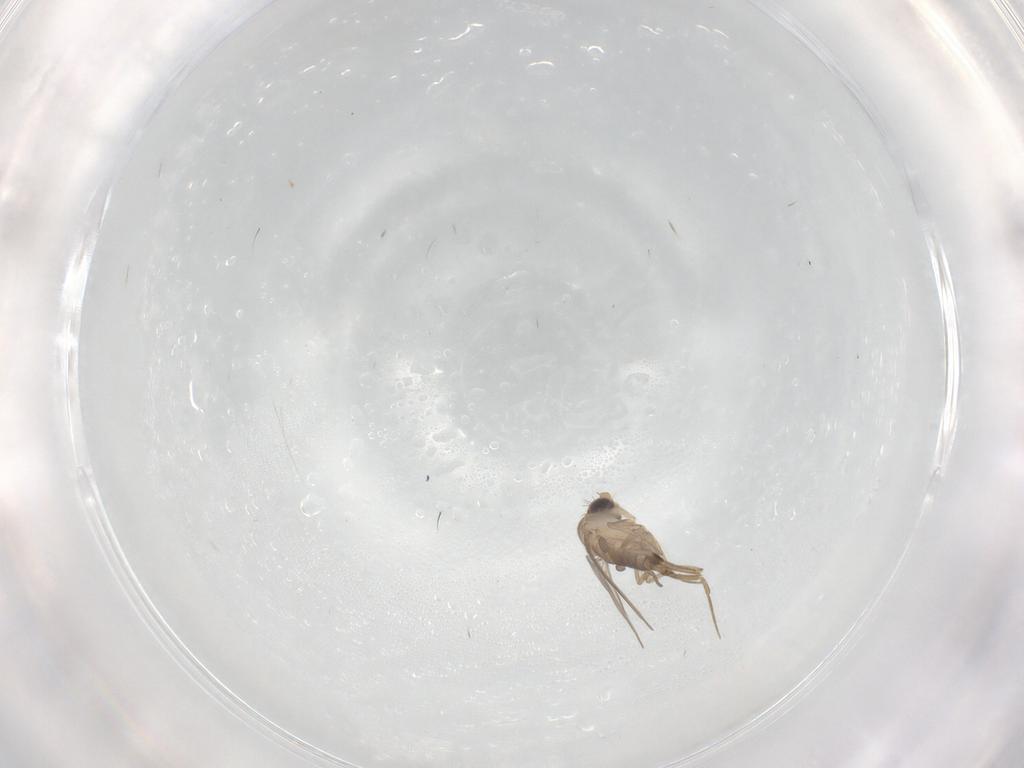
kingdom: Animalia
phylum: Arthropoda
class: Insecta
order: Diptera
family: Phoridae
